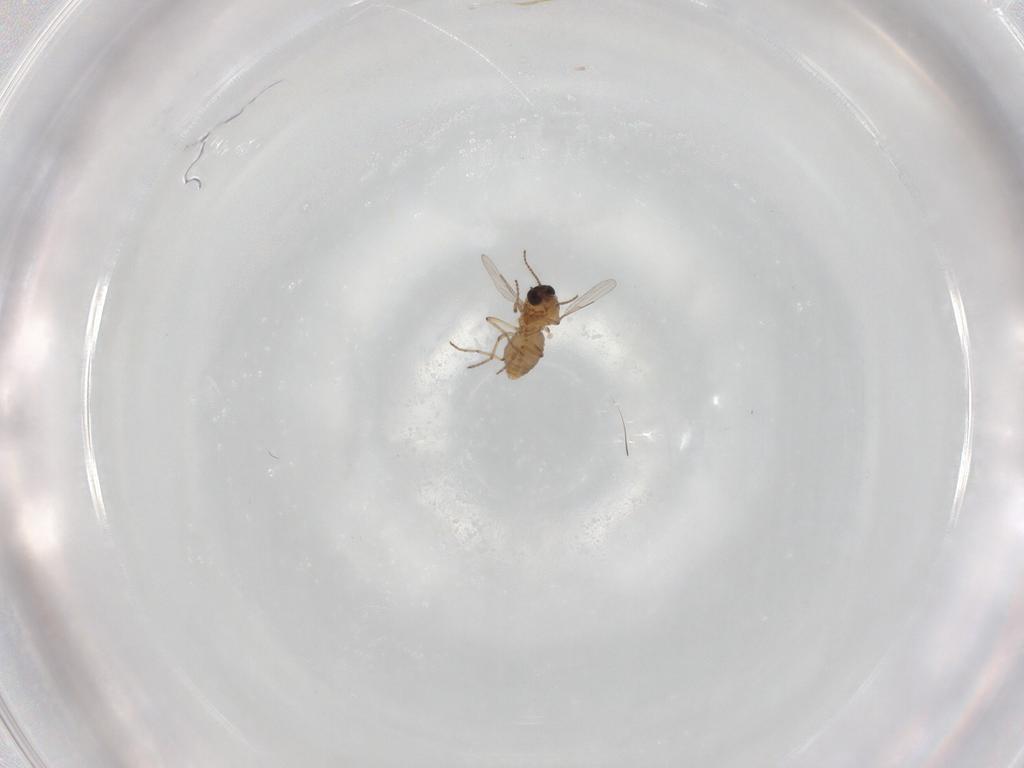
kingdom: Animalia
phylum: Arthropoda
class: Insecta
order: Diptera
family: Ceratopogonidae
